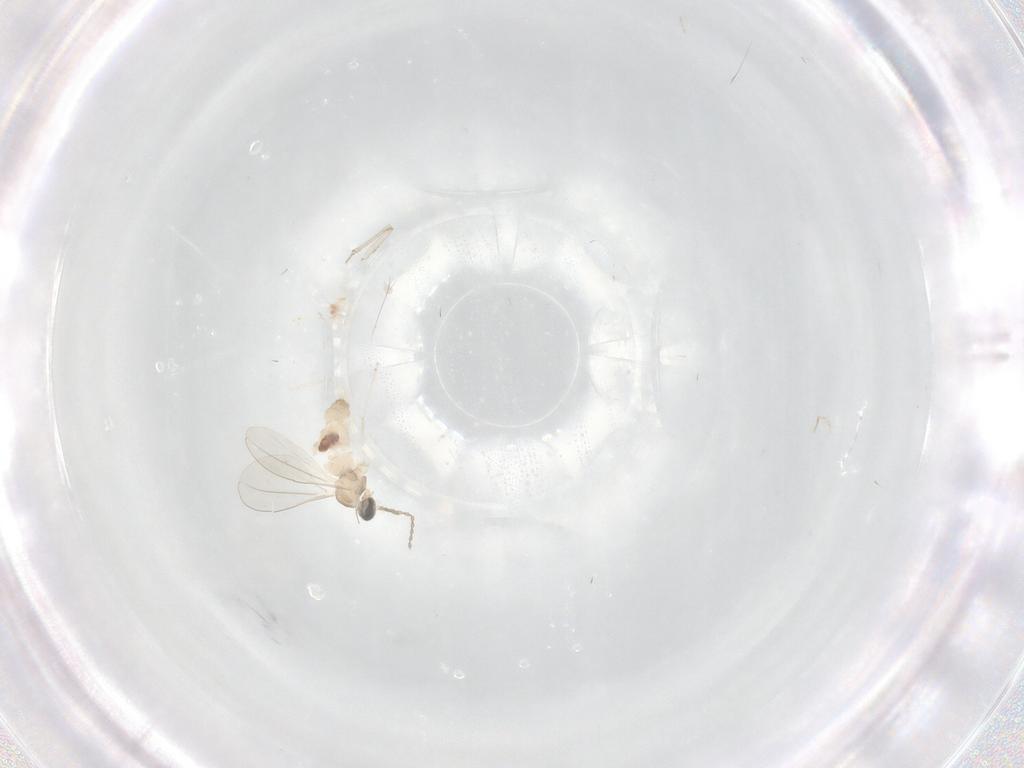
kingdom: Animalia
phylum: Arthropoda
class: Insecta
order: Diptera
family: Cecidomyiidae
